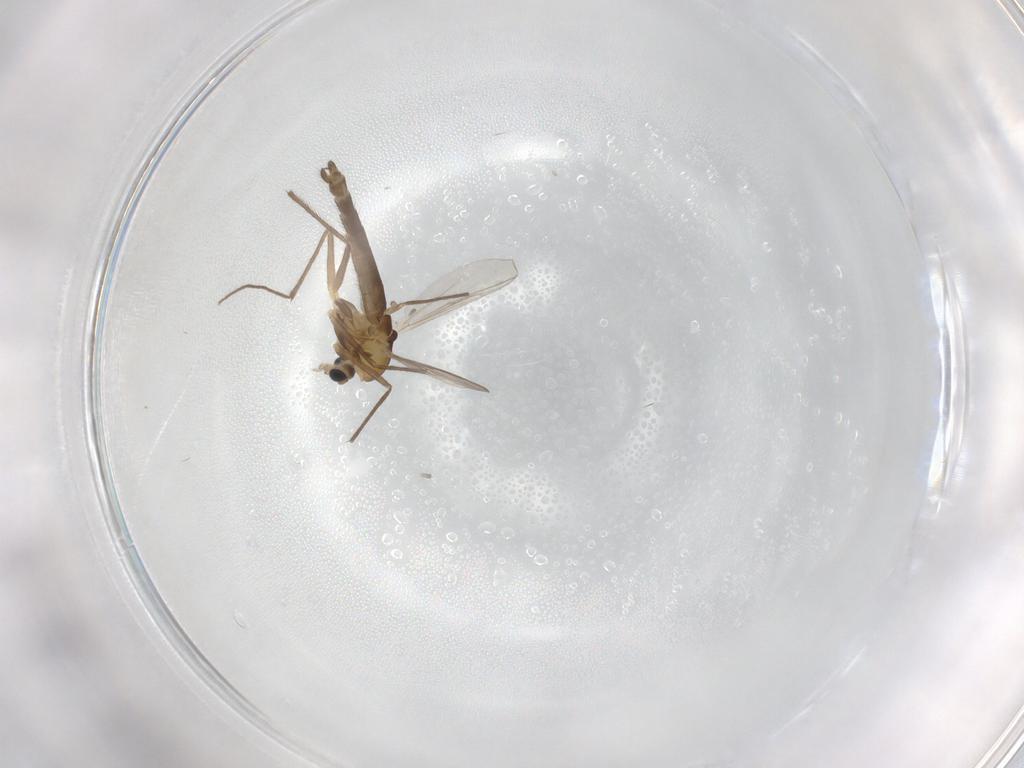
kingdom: Animalia
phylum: Arthropoda
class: Insecta
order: Diptera
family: Chironomidae
